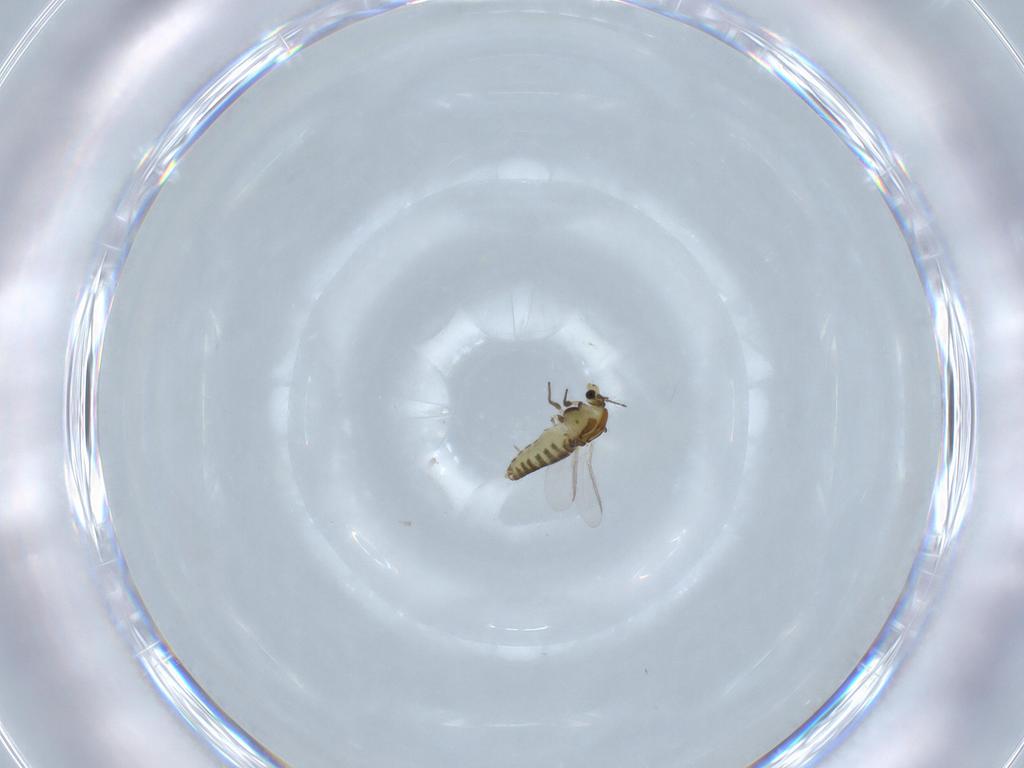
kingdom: Animalia
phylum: Arthropoda
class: Insecta
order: Diptera
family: Chironomidae
